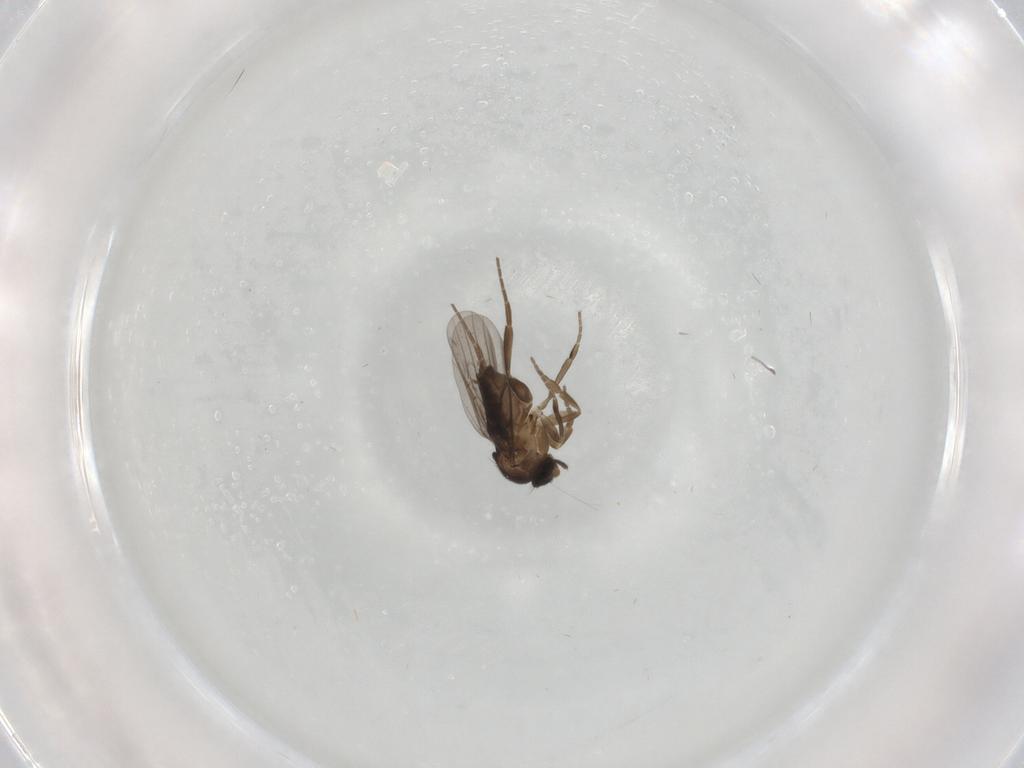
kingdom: Animalia
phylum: Arthropoda
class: Insecta
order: Diptera
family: Phoridae
